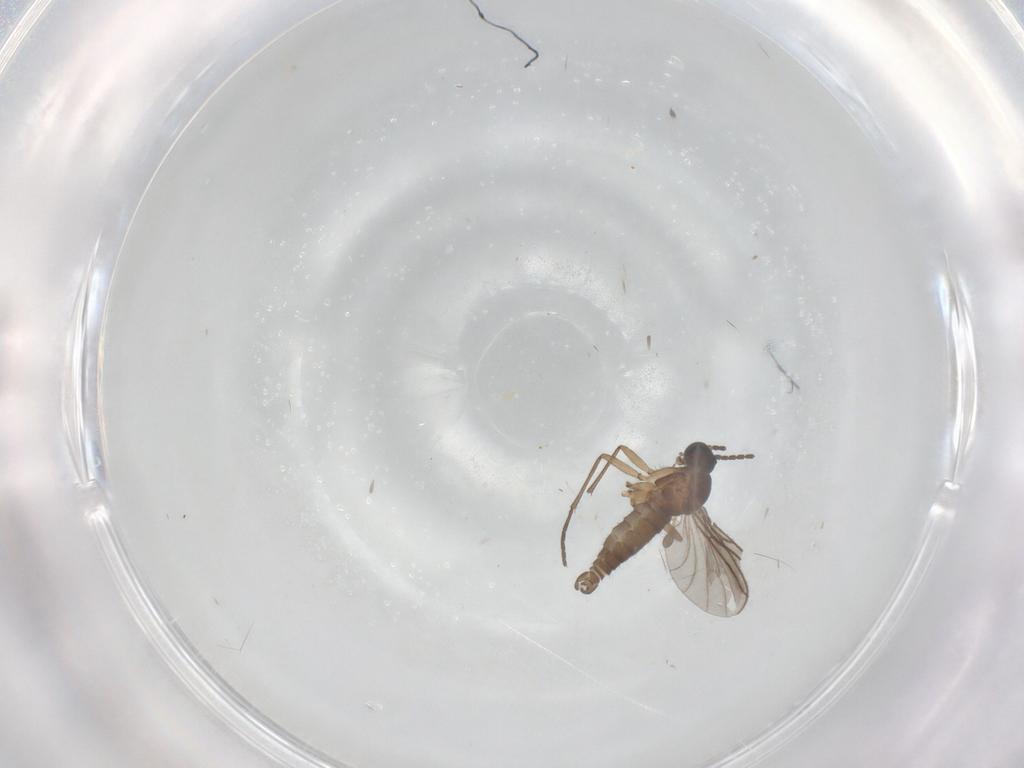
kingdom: Animalia
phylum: Arthropoda
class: Insecta
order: Diptera
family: Sciaridae
